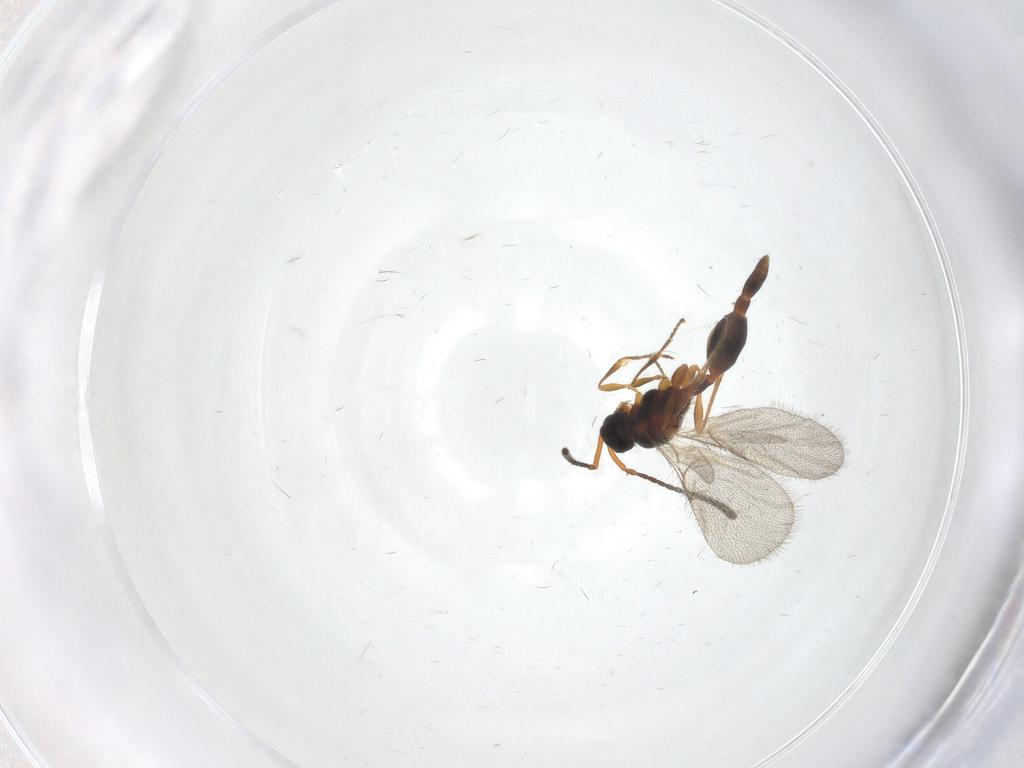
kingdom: Animalia
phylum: Arthropoda
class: Insecta
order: Hymenoptera
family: Diapriidae
